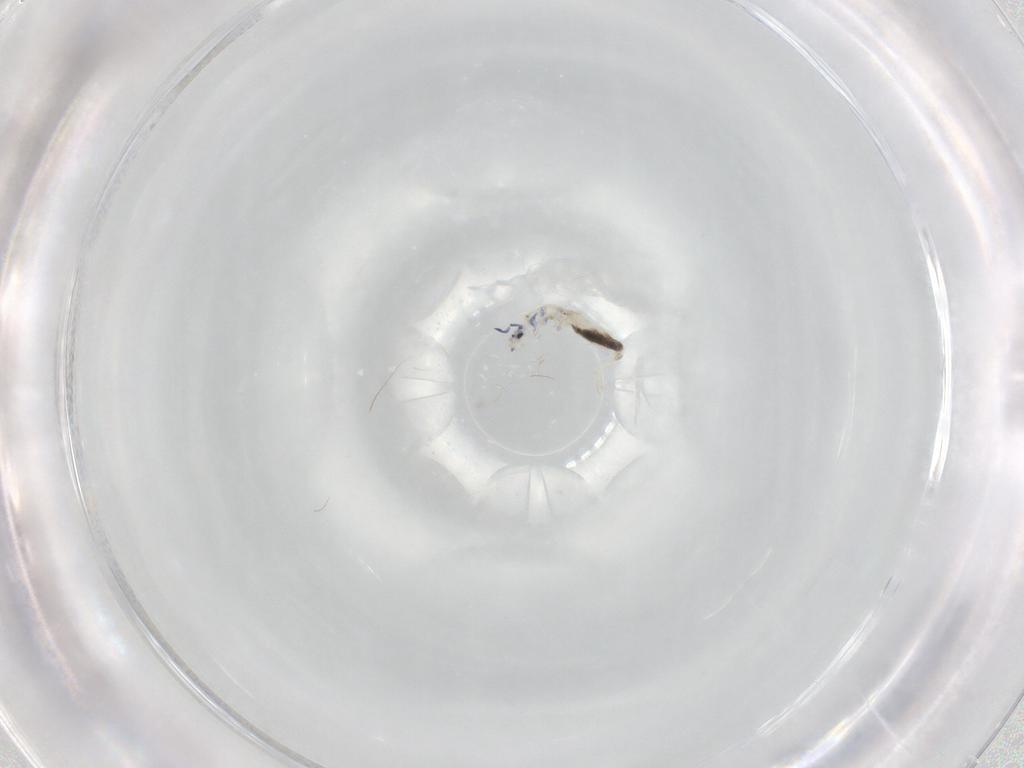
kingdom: Animalia
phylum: Arthropoda
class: Collembola
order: Entomobryomorpha
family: Entomobryidae
